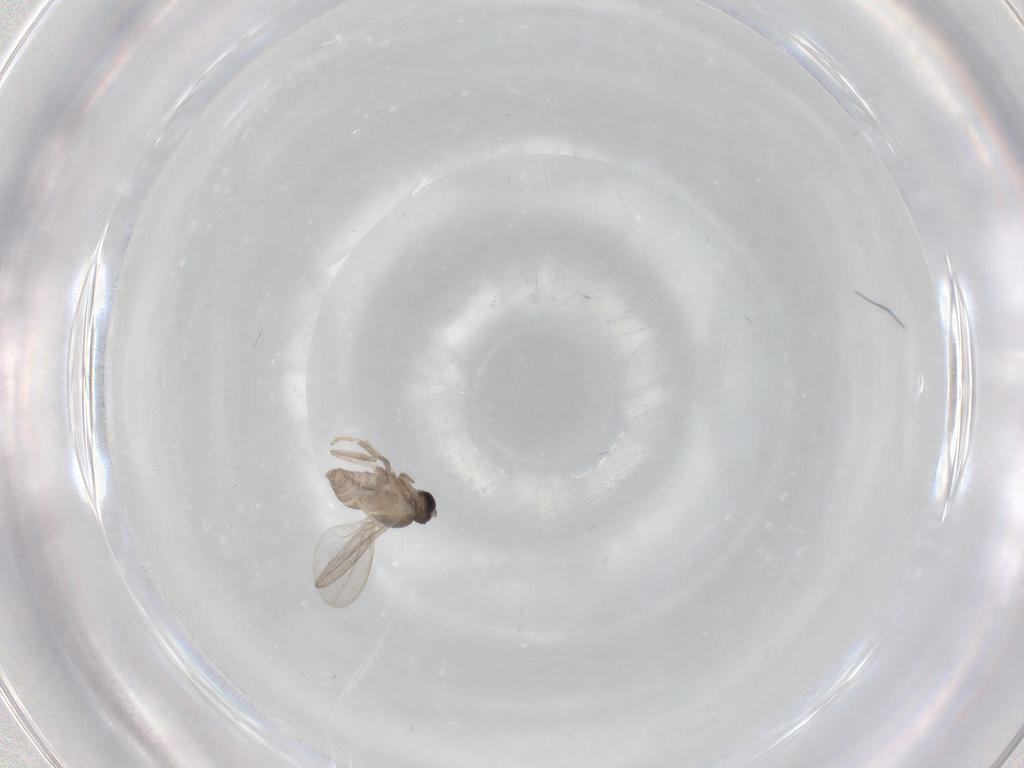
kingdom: Animalia
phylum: Arthropoda
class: Insecta
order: Diptera
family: Cecidomyiidae
